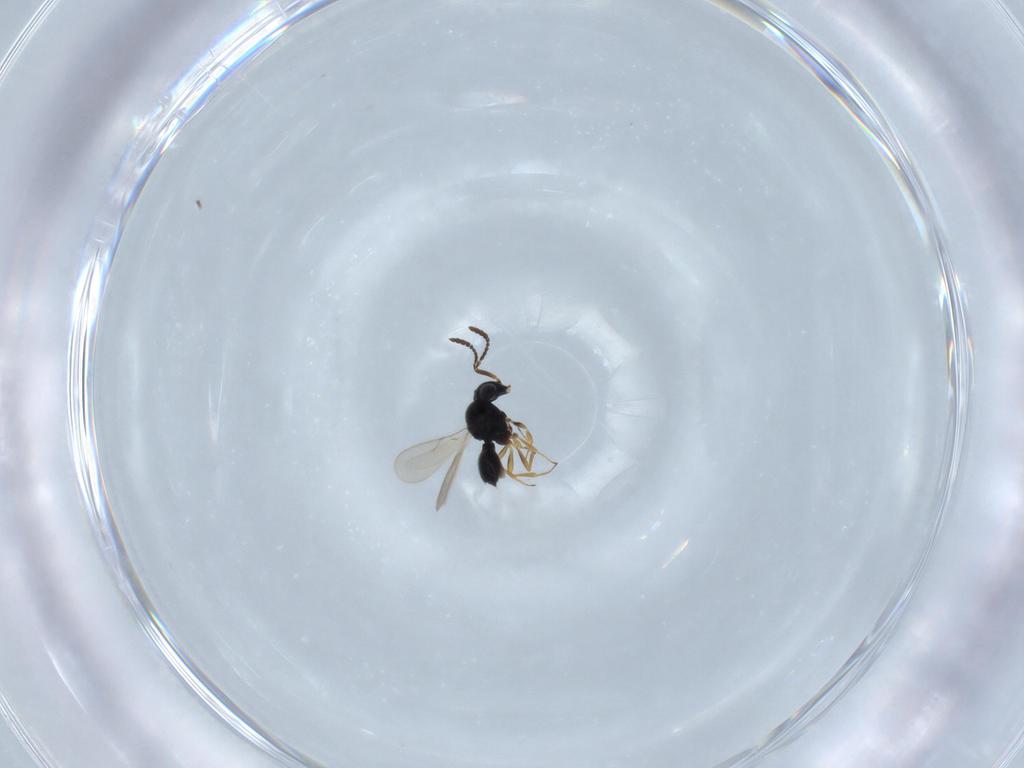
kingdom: Animalia
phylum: Arthropoda
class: Insecta
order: Hymenoptera
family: Scelionidae
